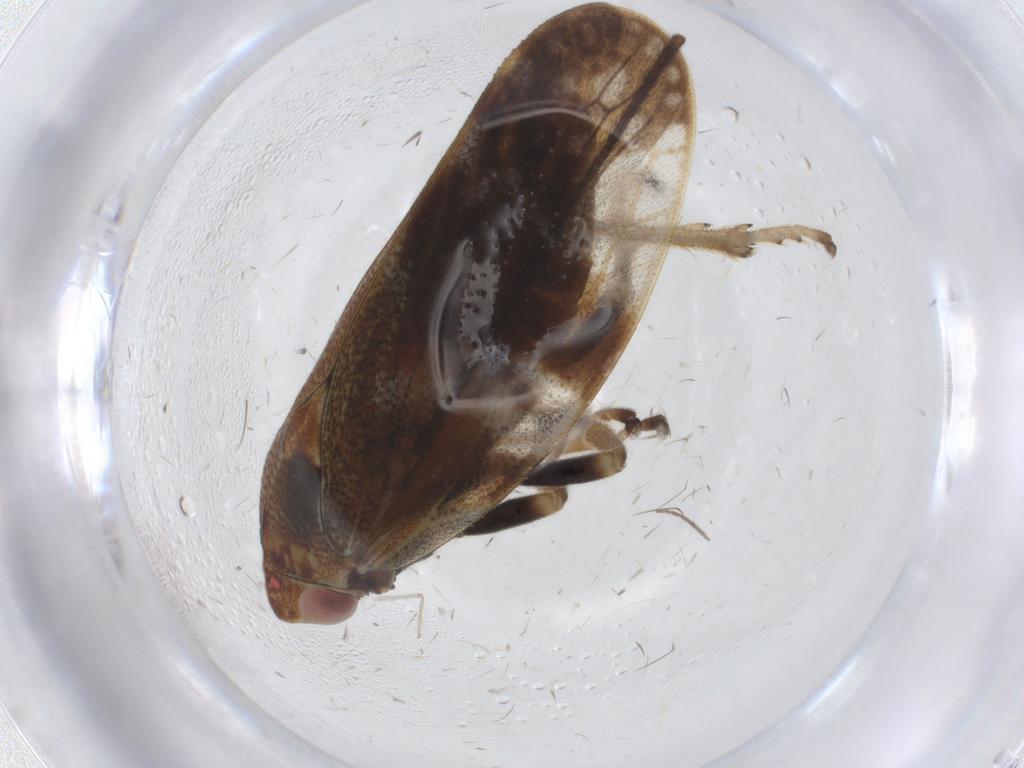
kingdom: Animalia
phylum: Arthropoda
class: Insecta
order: Hemiptera
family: Aphrophoridae
